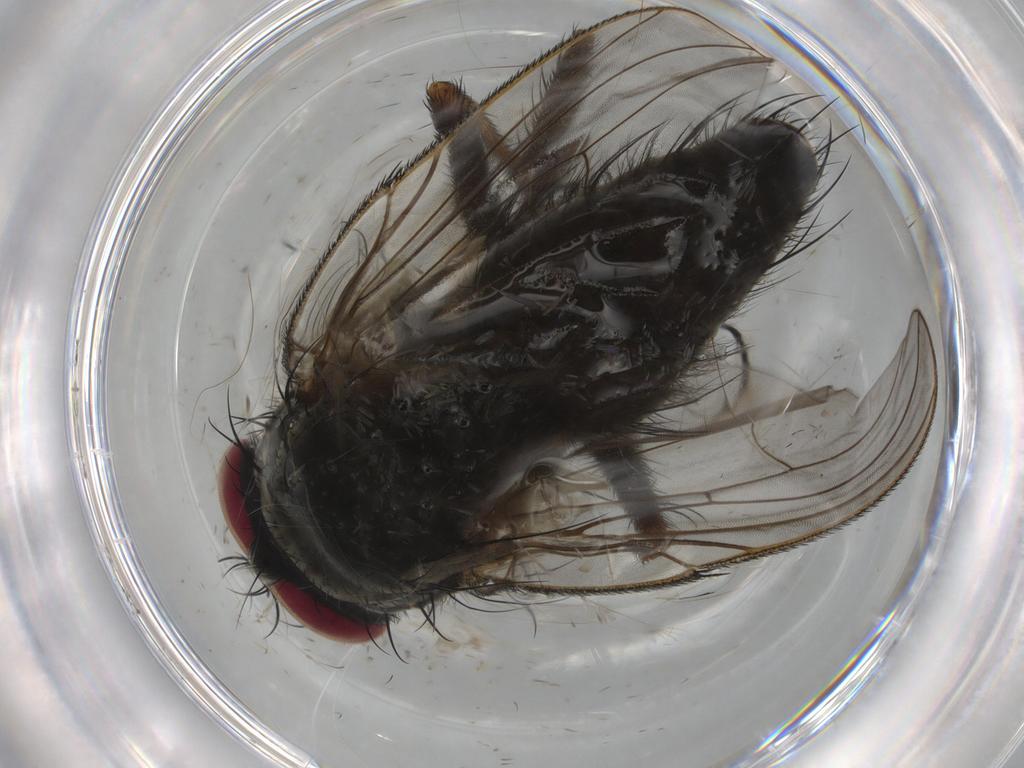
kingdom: Animalia
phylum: Arthropoda
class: Insecta
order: Diptera
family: Muscidae
